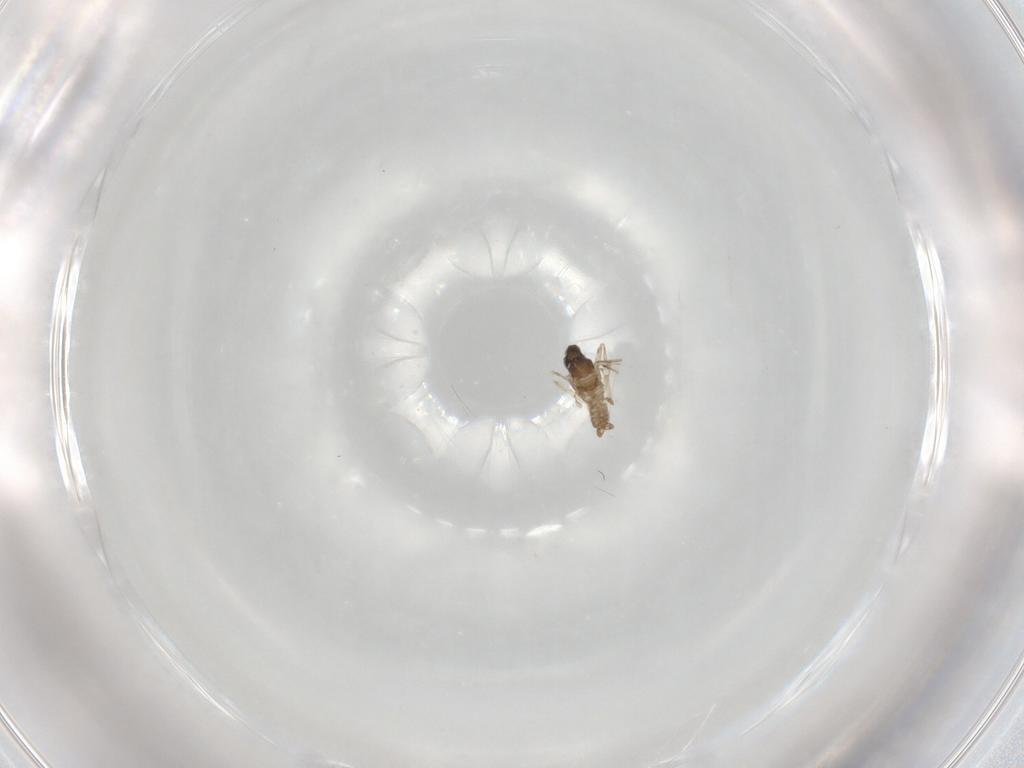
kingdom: Animalia
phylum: Arthropoda
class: Insecta
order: Diptera
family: Cecidomyiidae
